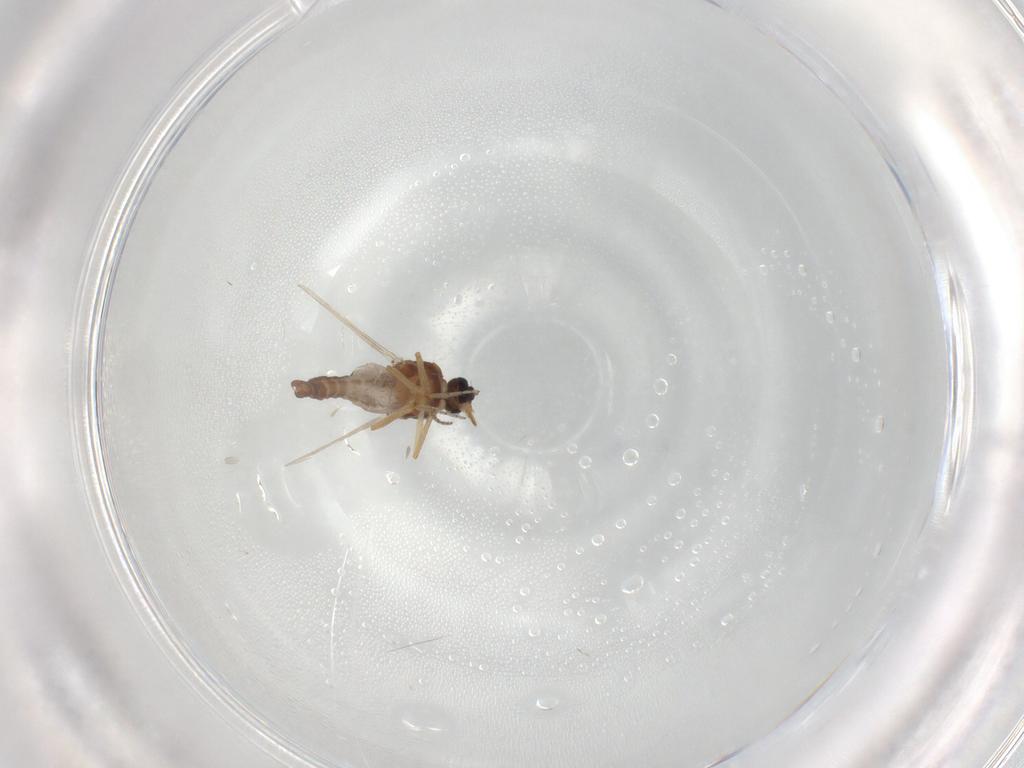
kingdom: Animalia
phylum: Arthropoda
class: Insecta
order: Diptera
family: Ceratopogonidae
